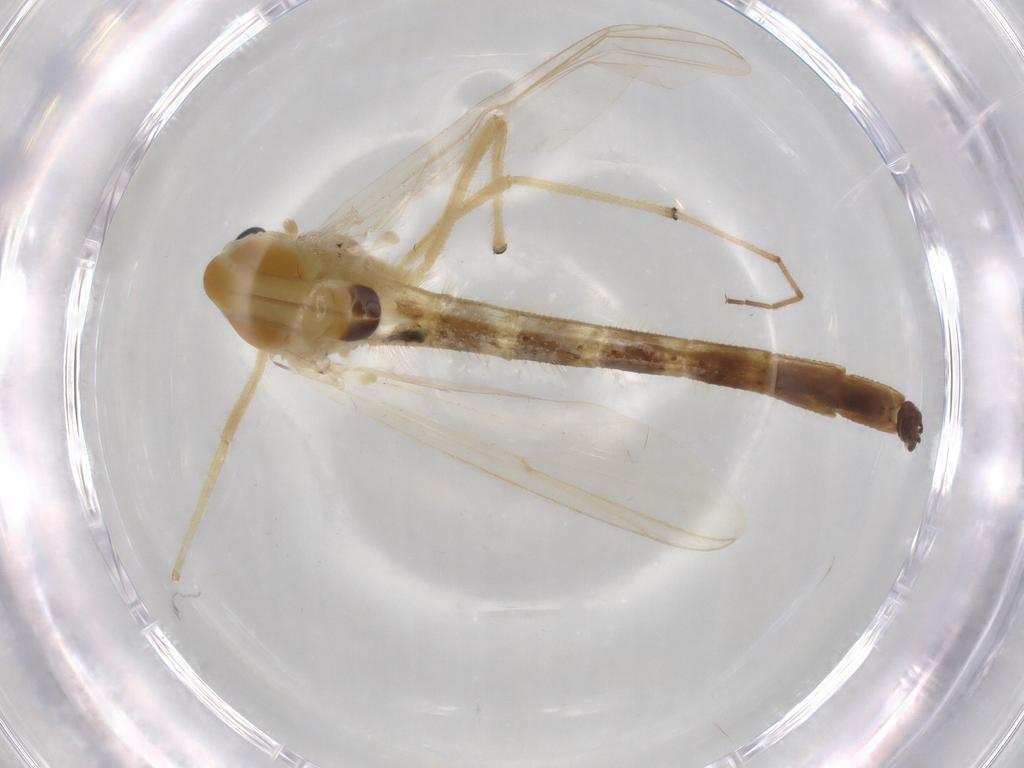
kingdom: Animalia
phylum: Arthropoda
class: Insecta
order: Diptera
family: Chironomidae
